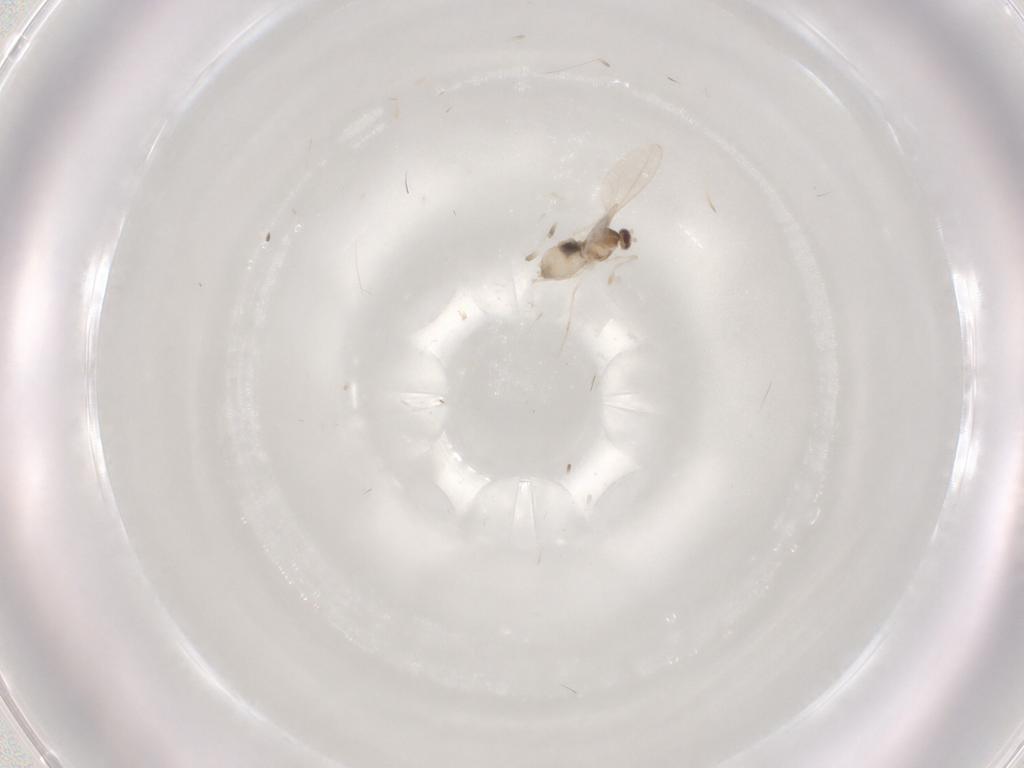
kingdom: Animalia
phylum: Arthropoda
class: Insecta
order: Diptera
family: Cecidomyiidae
